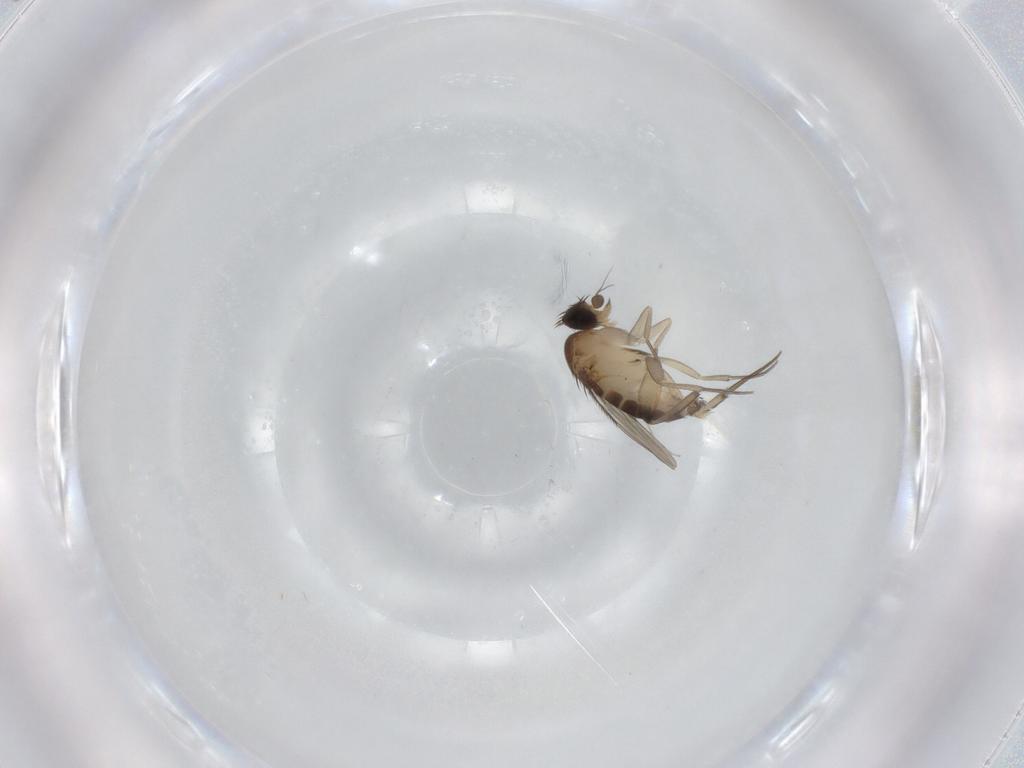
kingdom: Animalia
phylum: Arthropoda
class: Insecta
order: Diptera
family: Phoridae
